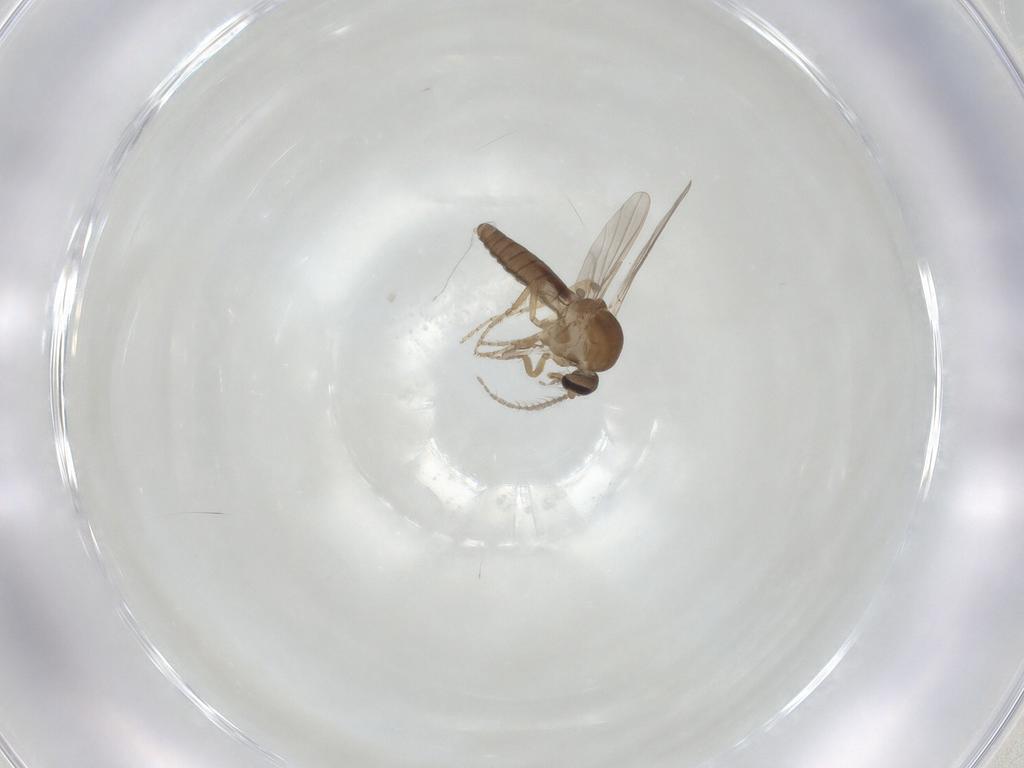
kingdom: Animalia
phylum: Arthropoda
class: Insecta
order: Diptera
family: Ceratopogonidae
